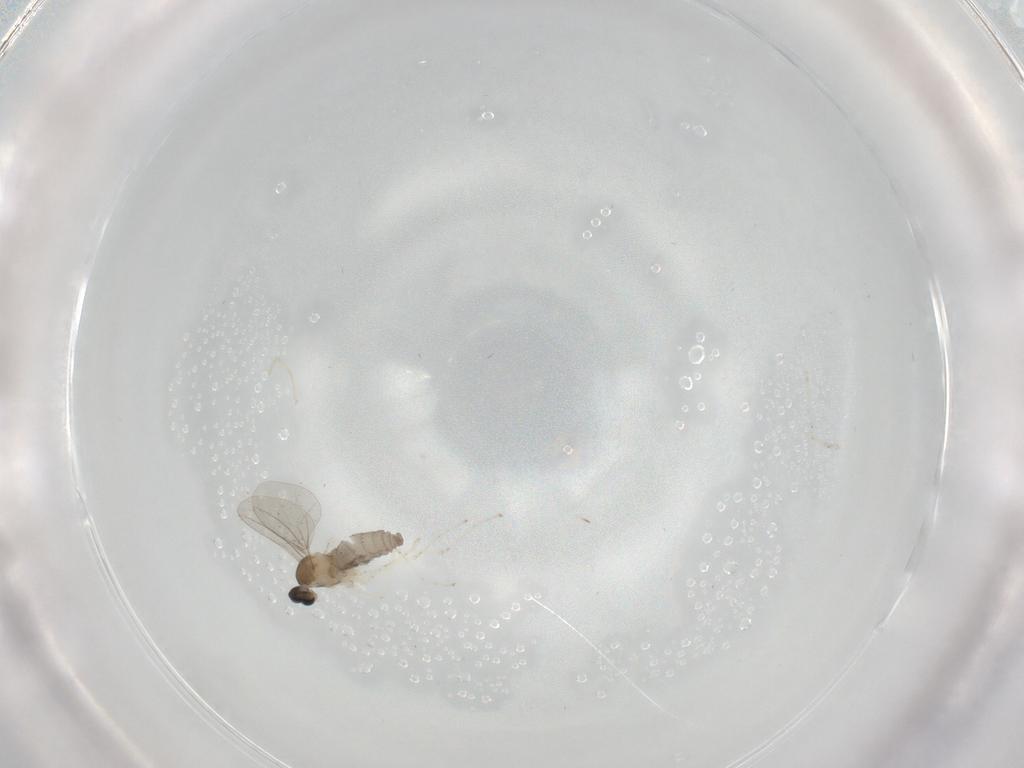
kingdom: Animalia
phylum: Arthropoda
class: Insecta
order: Diptera
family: Cecidomyiidae
